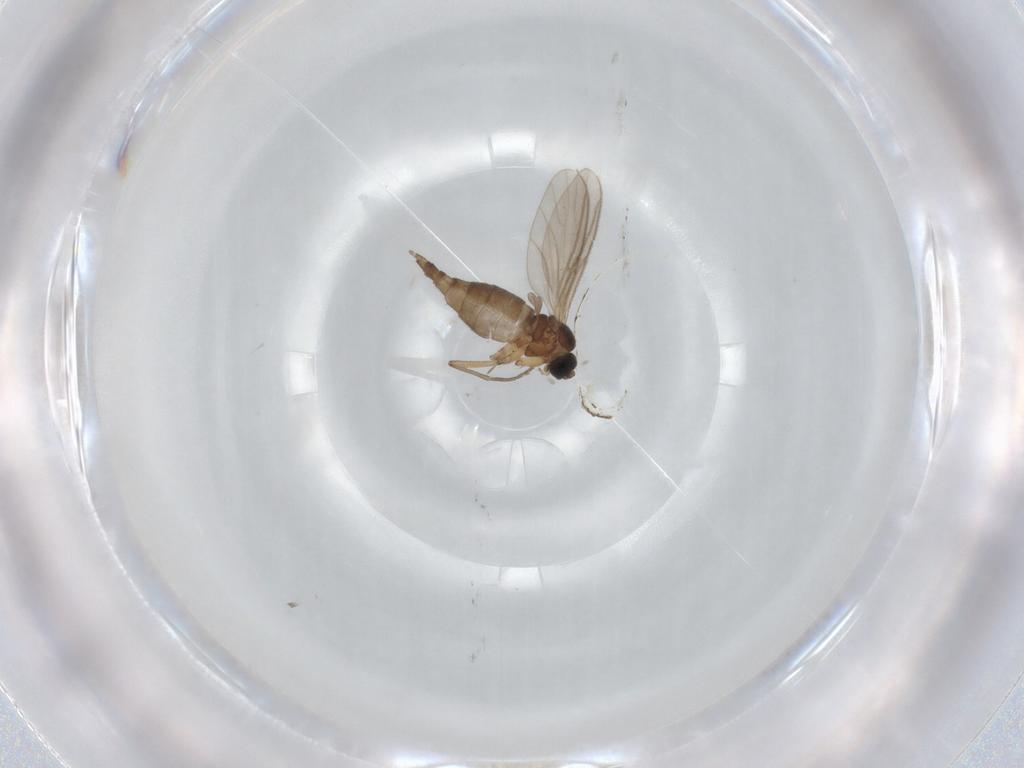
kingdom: Animalia
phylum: Arthropoda
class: Insecta
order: Diptera
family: Sciaridae
